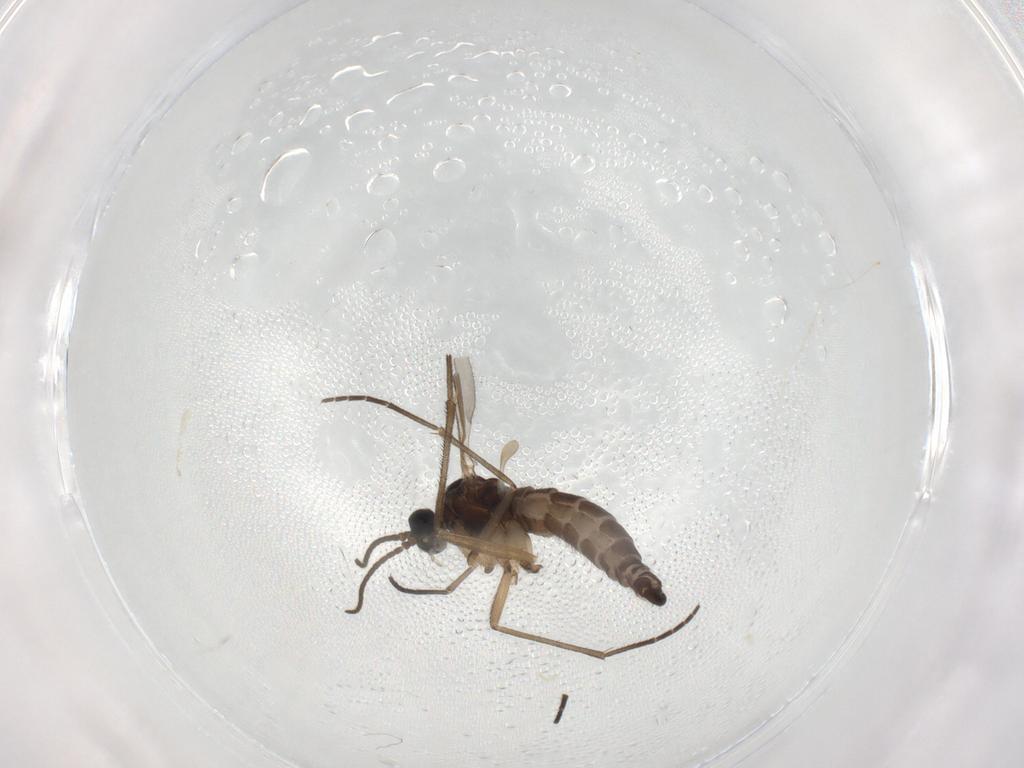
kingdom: Animalia
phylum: Arthropoda
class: Insecta
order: Diptera
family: Sciaridae
